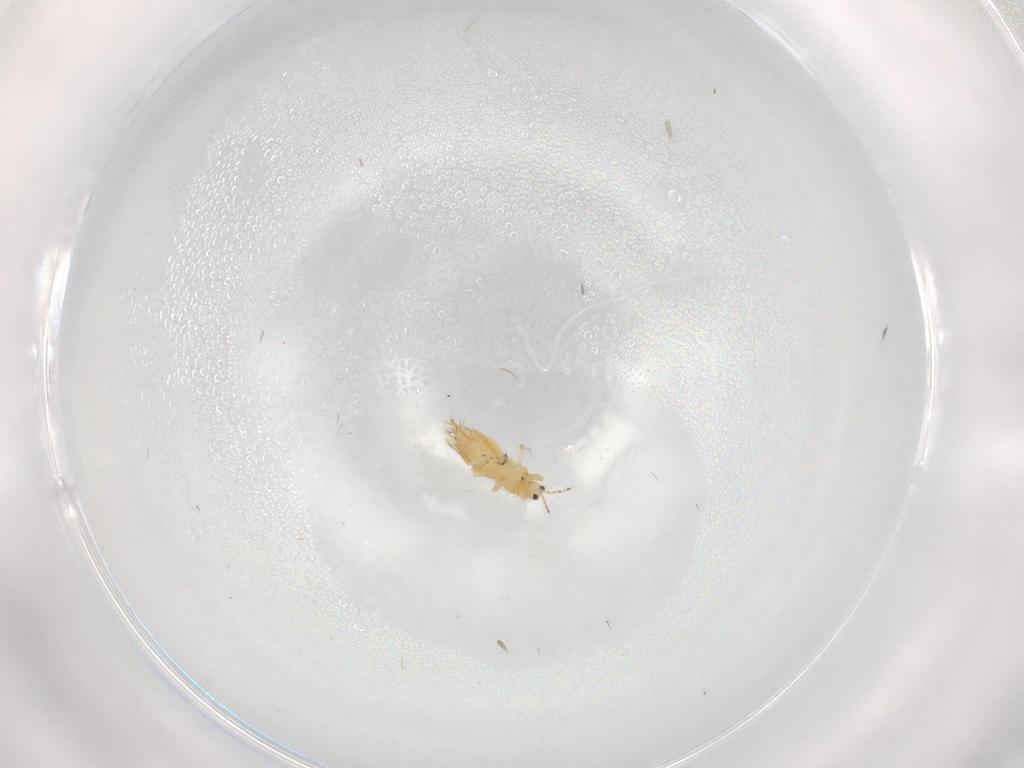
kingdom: Animalia
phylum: Arthropoda
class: Insecta
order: Thysanoptera
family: Thripidae
